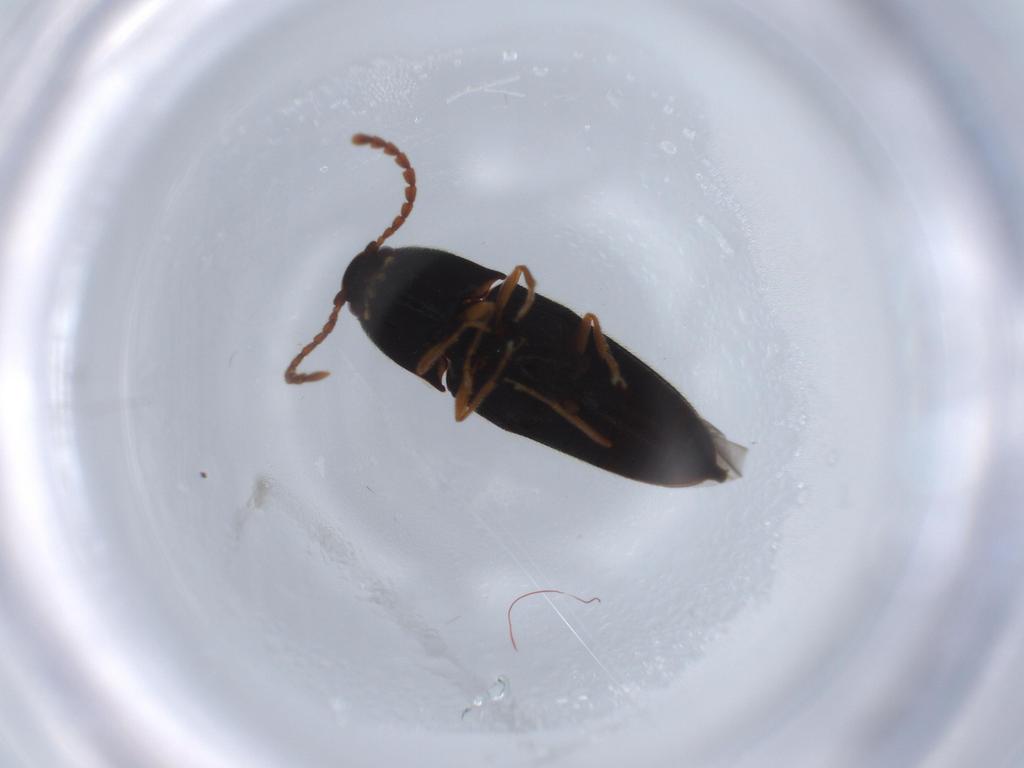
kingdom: Animalia
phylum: Arthropoda
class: Insecta
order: Coleoptera
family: Elateridae
